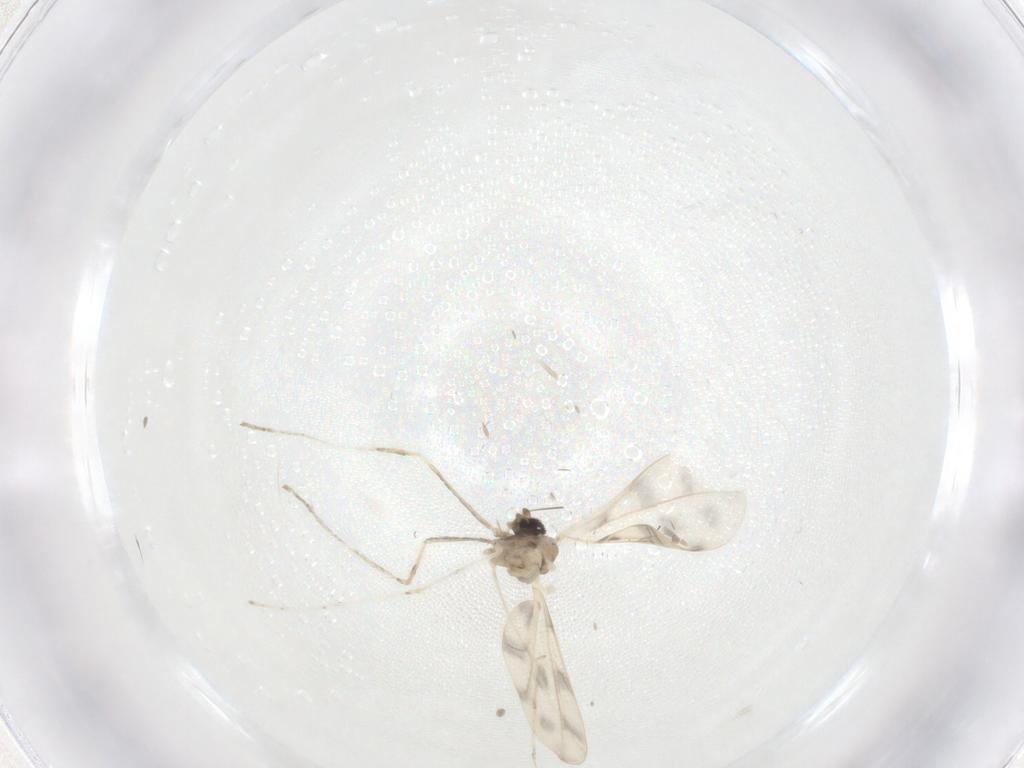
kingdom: Animalia
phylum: Arthropoda
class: Insecta
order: Diptera
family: Cecidomyiidae
